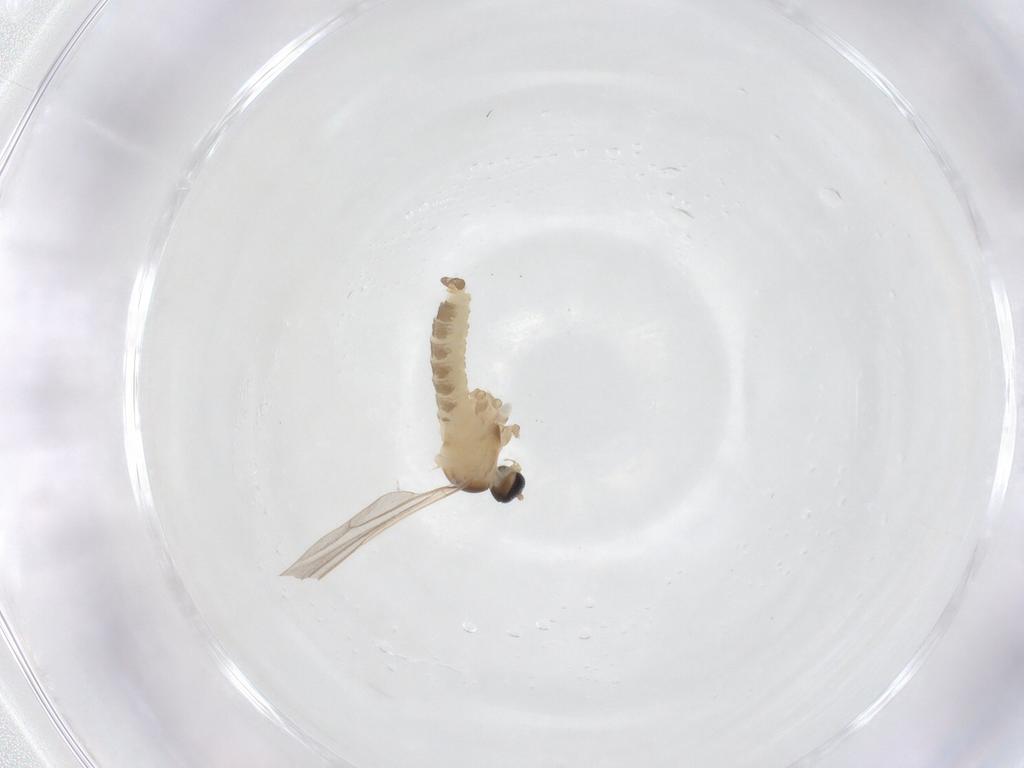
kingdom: Animalia
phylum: Arthropoda
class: Insecta
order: Diptera
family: Cecidomyiidae
